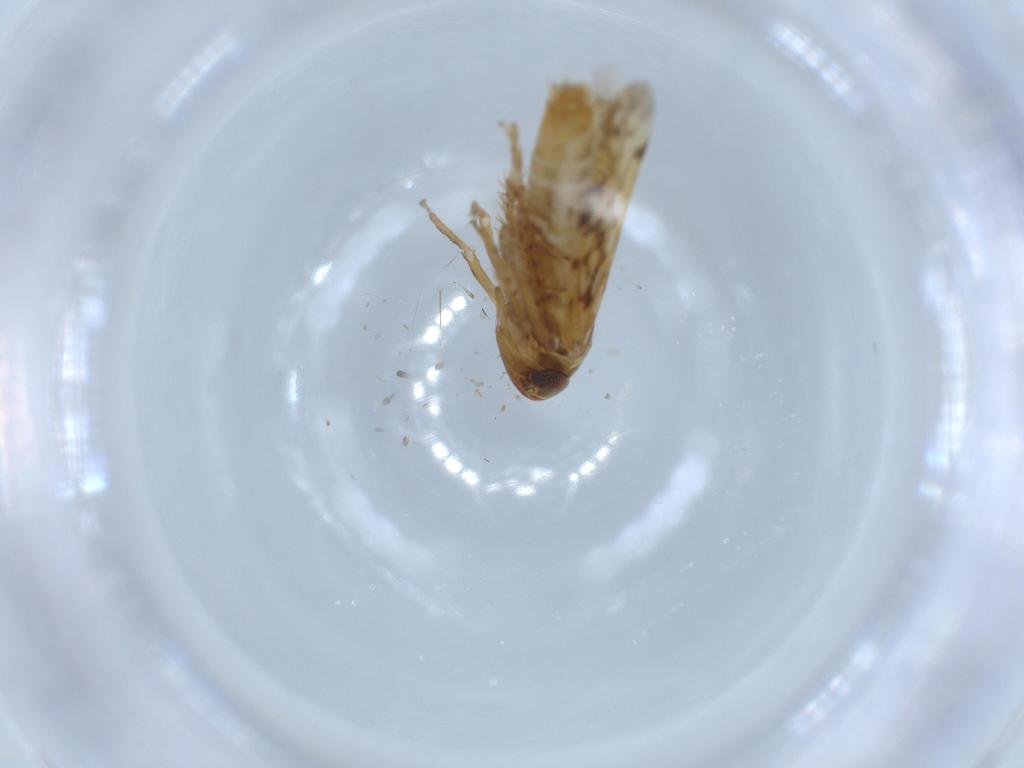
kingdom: Animalia
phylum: Arthropoda
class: Insecta
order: Hemiptera
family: Cicadellidae
